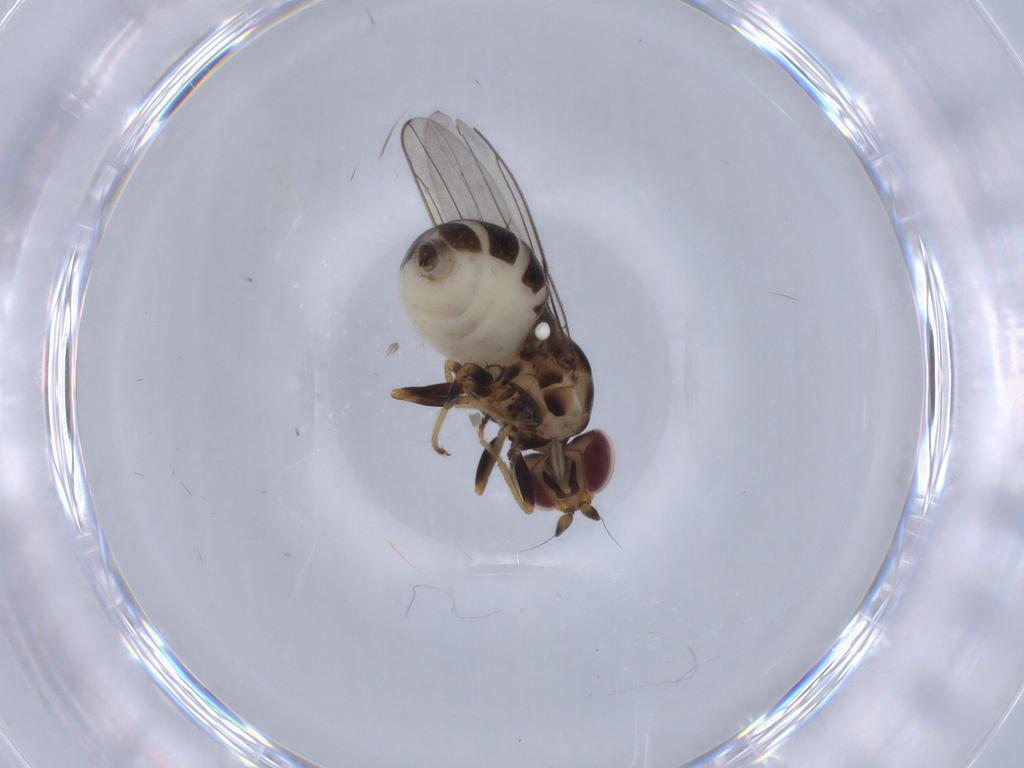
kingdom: Animalia
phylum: Arthropoda
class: Insecta
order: Diptera
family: Chloropidae
